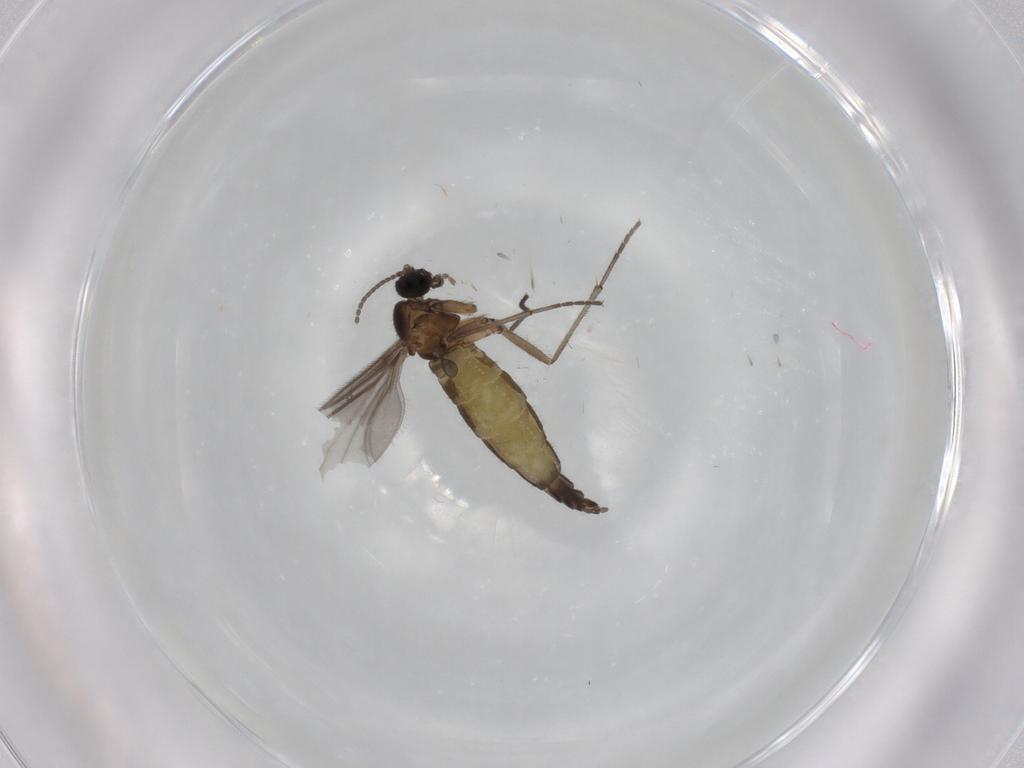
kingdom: Animalia
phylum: Arthropoda
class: Insecta
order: Diptera
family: Sciaridae
